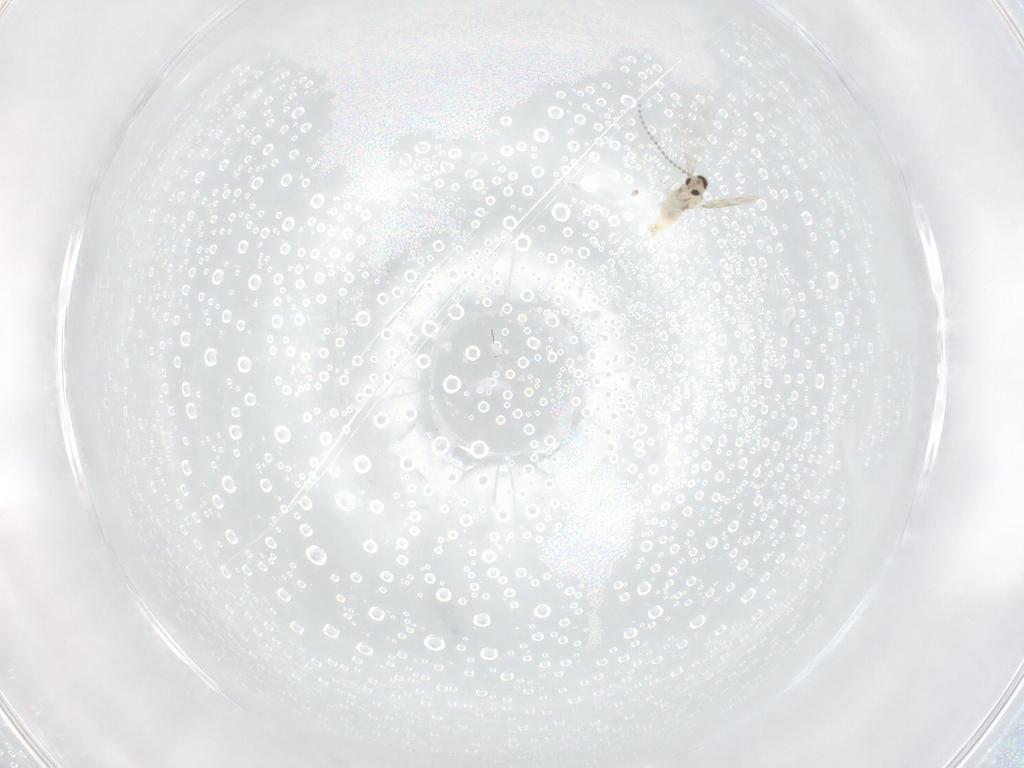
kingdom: Animalia
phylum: Arthropoda
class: Insecta
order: Diptera
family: Cecidomyiidae
